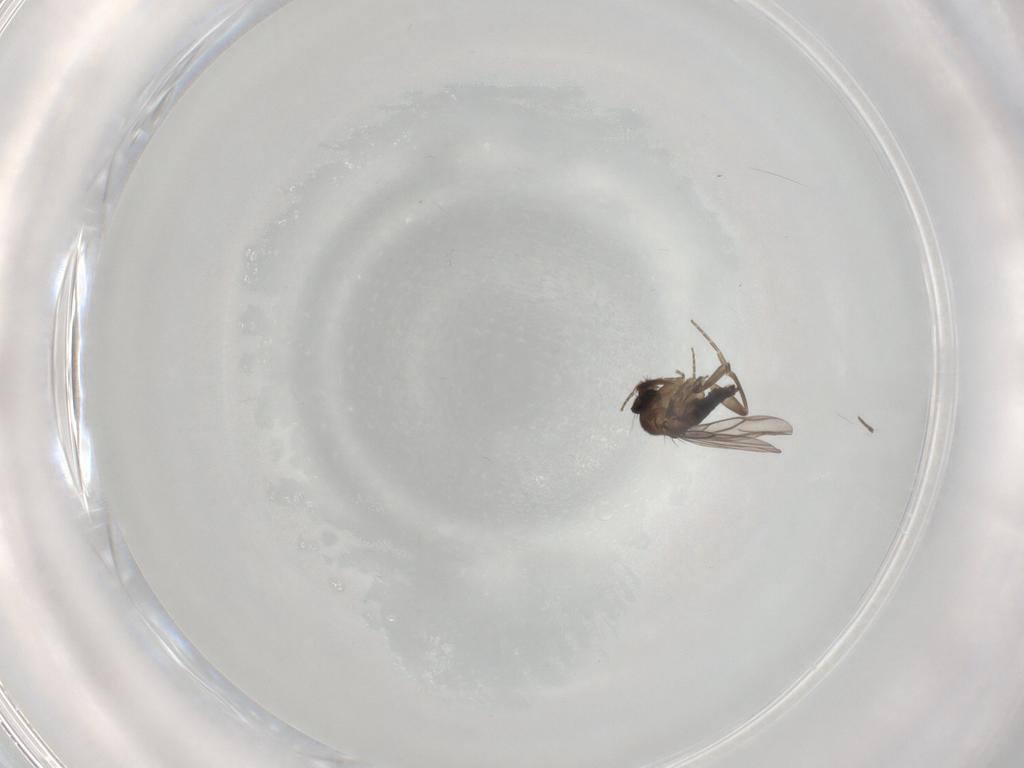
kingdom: Animalia
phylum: Arthropoda
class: Insecta
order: Diptera
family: Phoridae
